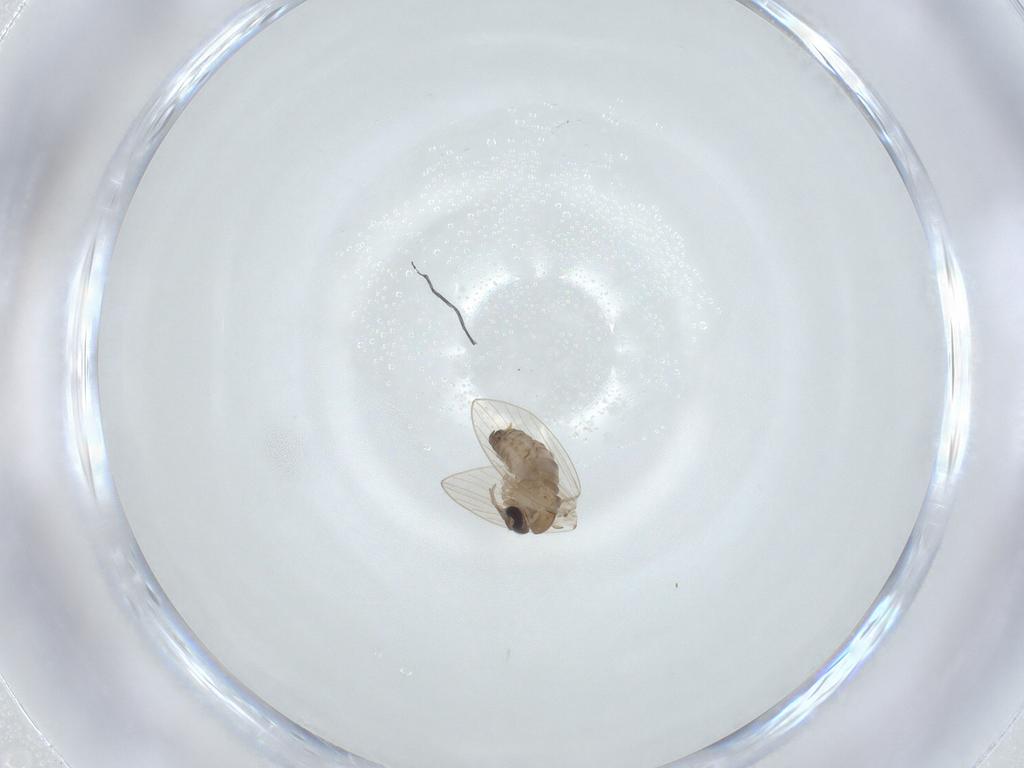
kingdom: Animalia
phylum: Arthropoda
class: Insecta
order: Diptera
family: Psychodidae
